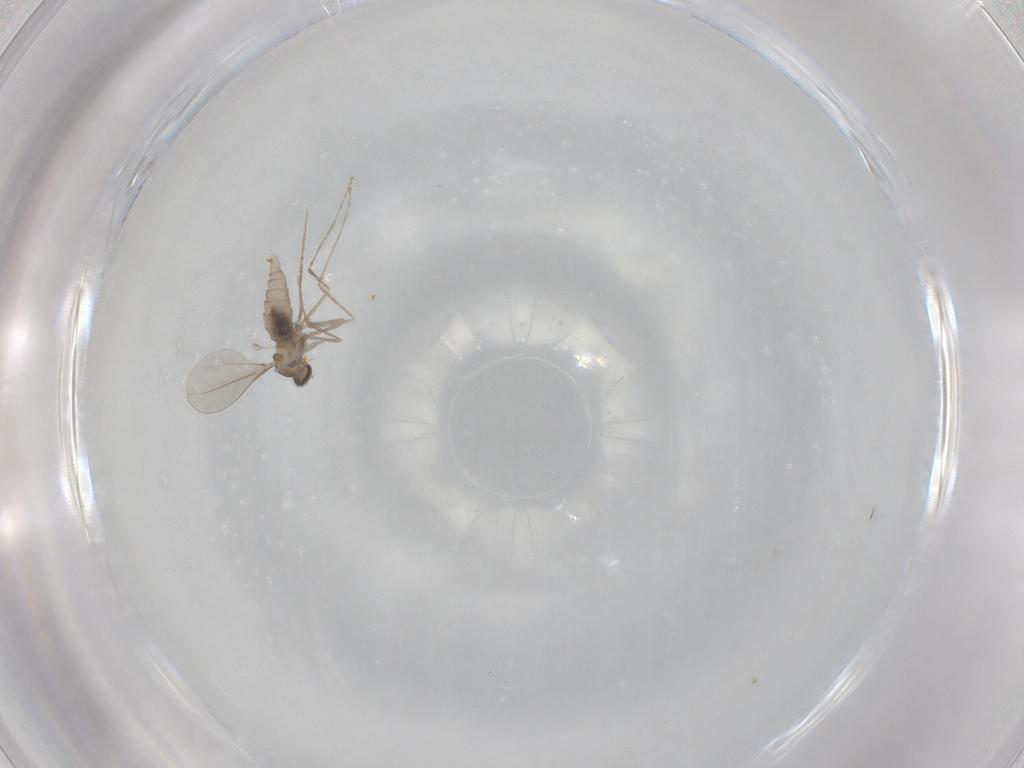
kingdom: Animalia
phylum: Arthropoda
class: Insecta
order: Diptera
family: Cecidomyiidae
